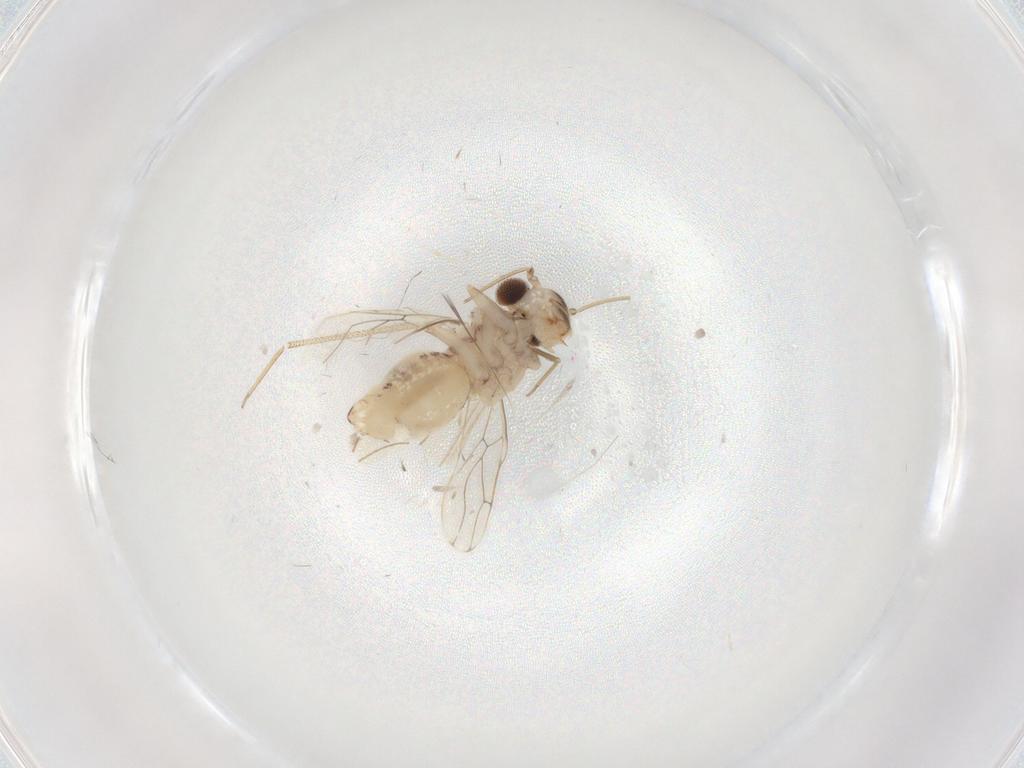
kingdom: Animalia
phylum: Arthropoda
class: Insecta
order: Psocodea
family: Epipsocidae
